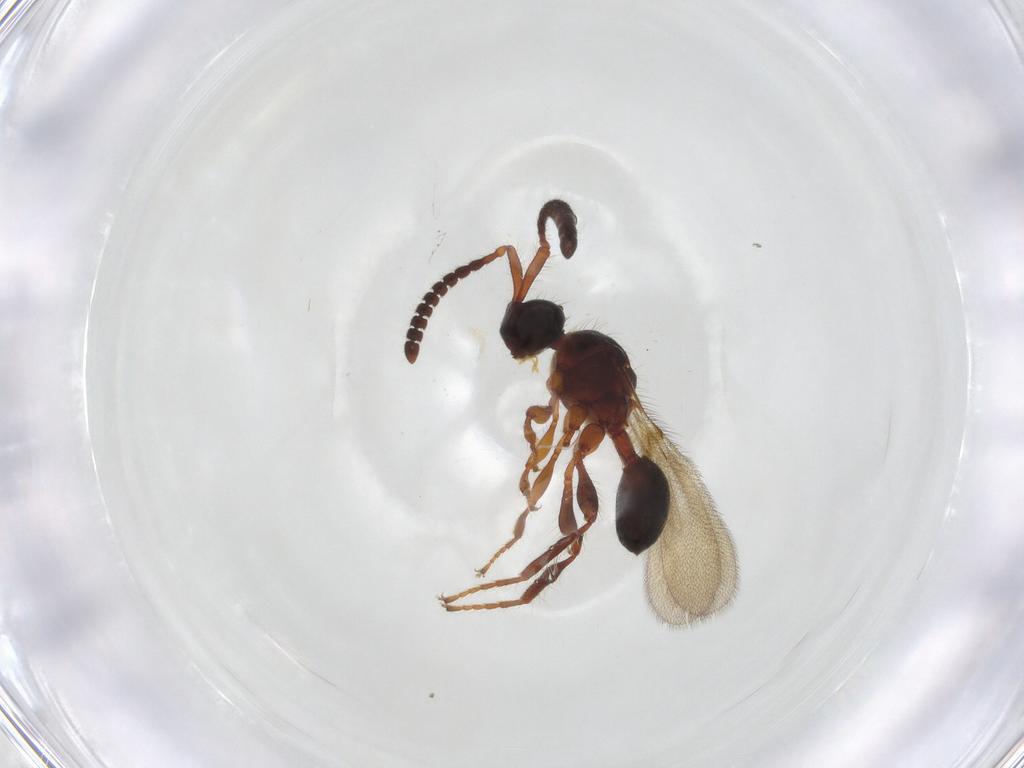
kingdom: Animalia
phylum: Arthropoda
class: Insecta
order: Hymenoptera
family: Diapriidae
